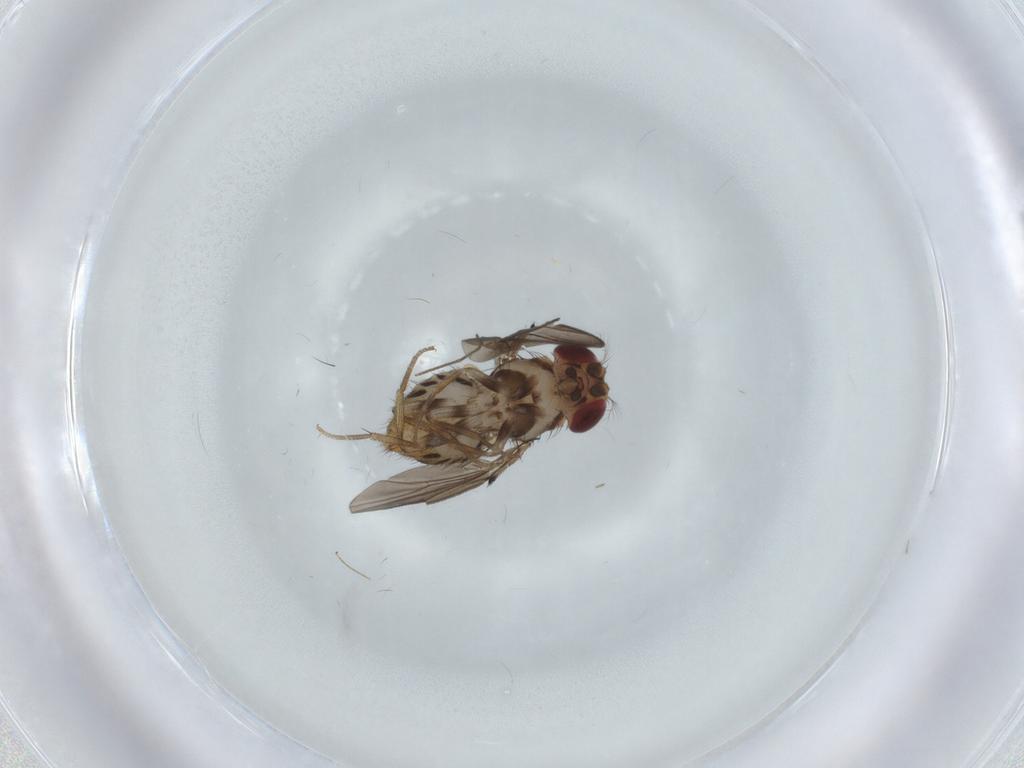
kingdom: Animalia
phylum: Arthropoda
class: Insecta
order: Diptera
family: Drosophilidae
